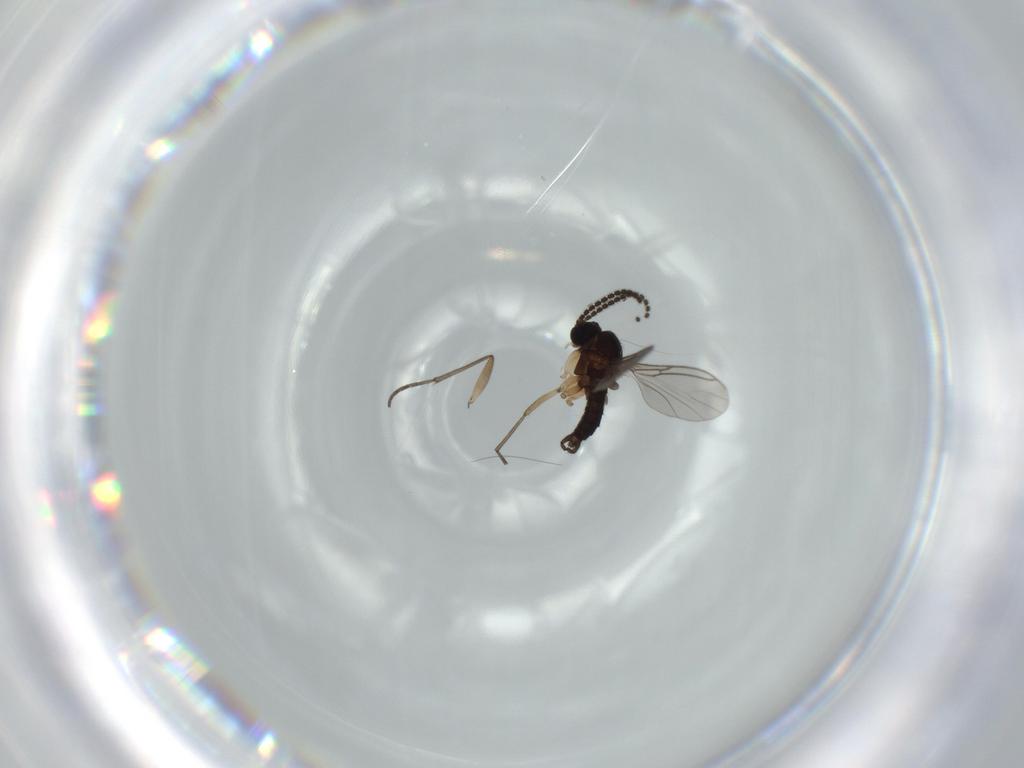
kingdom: Animalia
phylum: Arthropoda
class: Insecta
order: Diptera
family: Sciaridae
